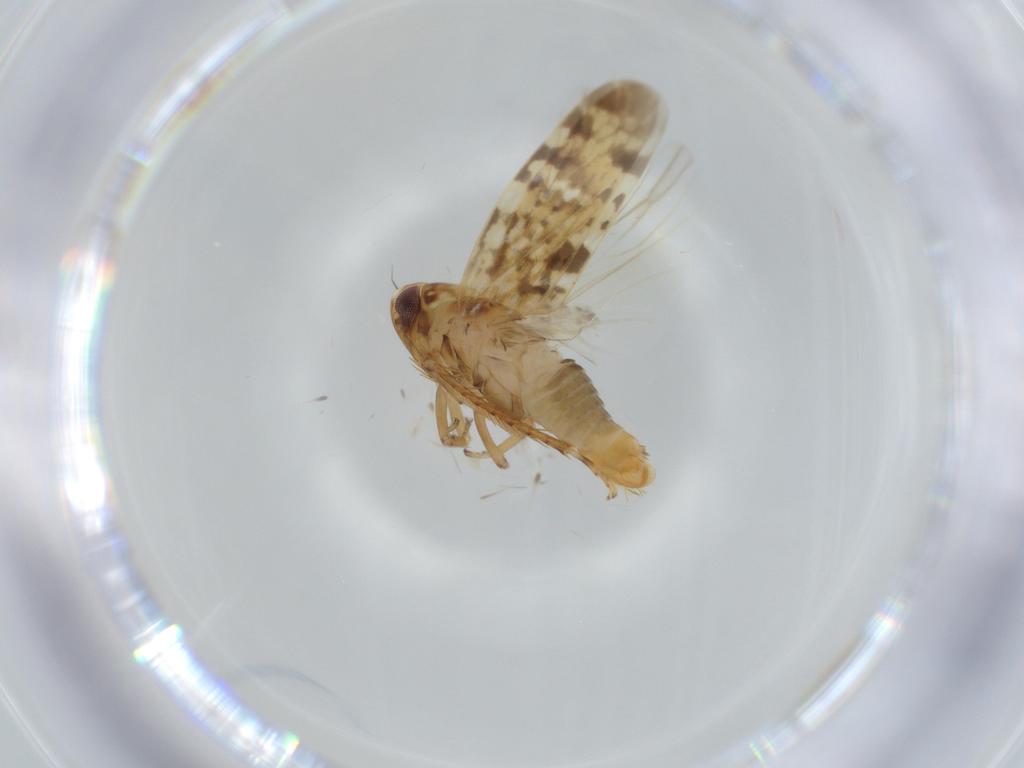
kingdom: Animalia
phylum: Arthropoda
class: Insecta
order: Hemiptera
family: Cicadellidae
